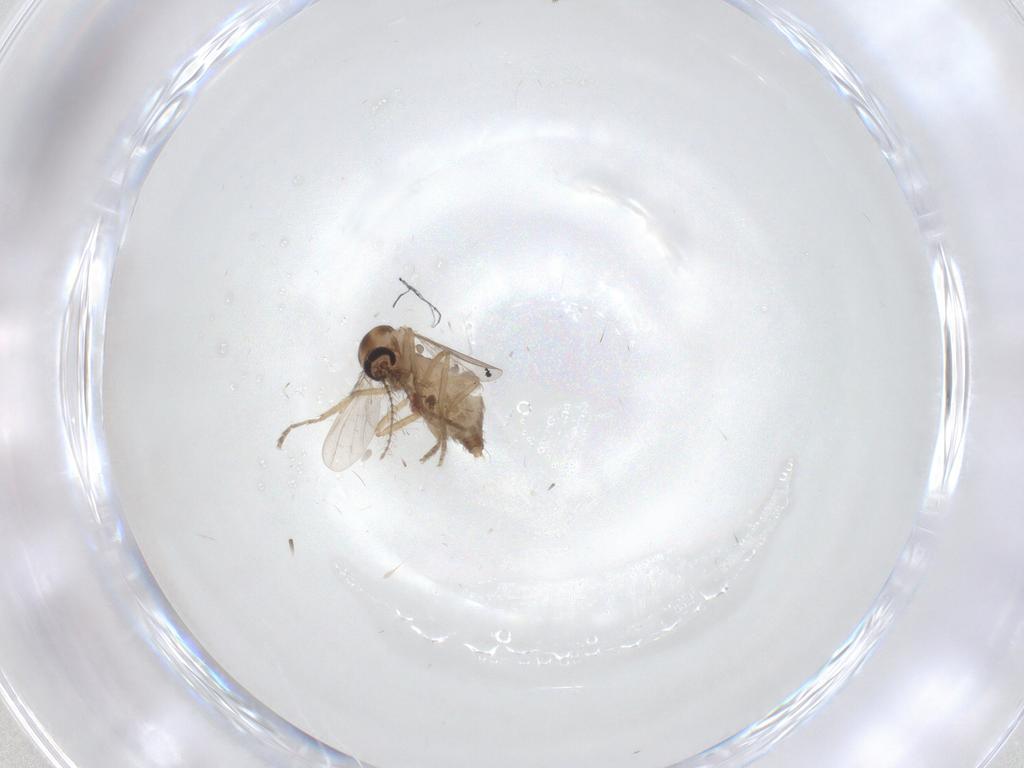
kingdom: Animalia
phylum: Arthropoda
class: Insecta
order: Diptera
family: Ceratopogonidae
